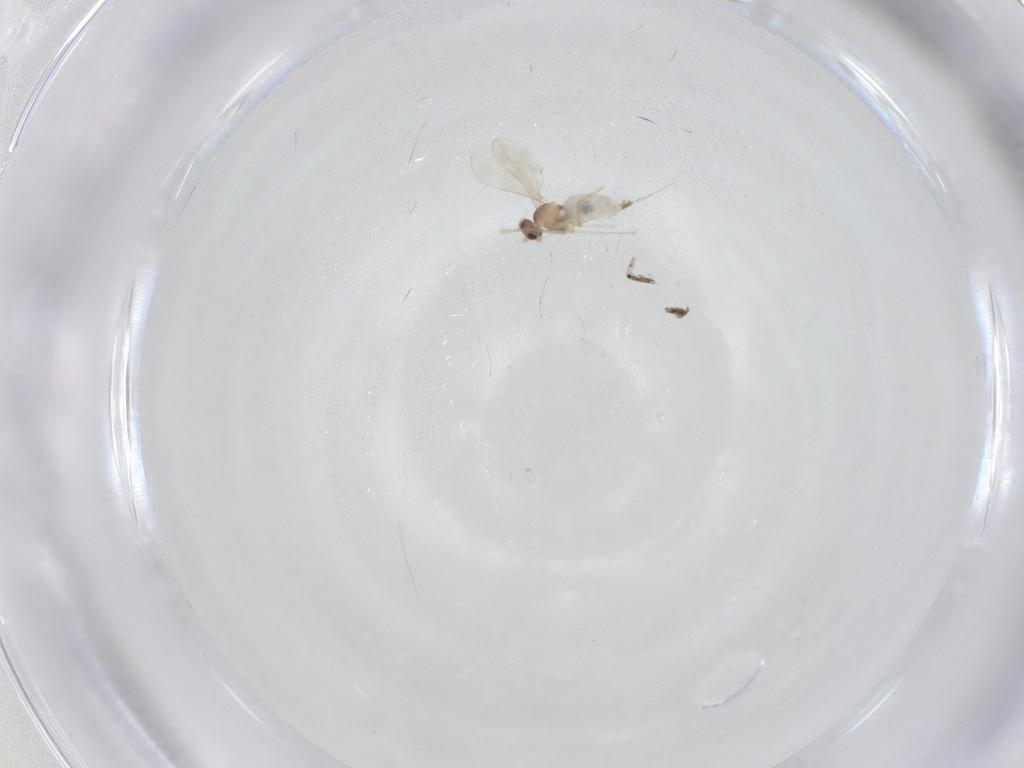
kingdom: Animalia
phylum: Arthropoda
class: Insecta
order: Diptera
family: Cecidomyiidae
